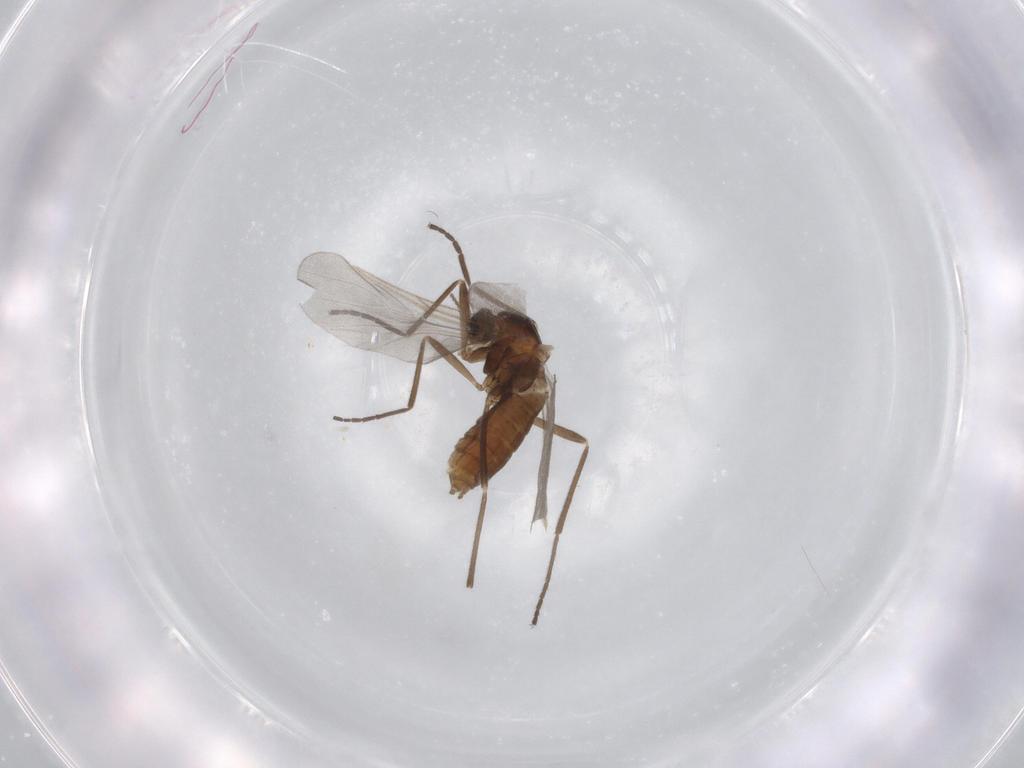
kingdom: Animalia
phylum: Arthropoda
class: Insecta
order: Diptera
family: Cecidomyiidae
